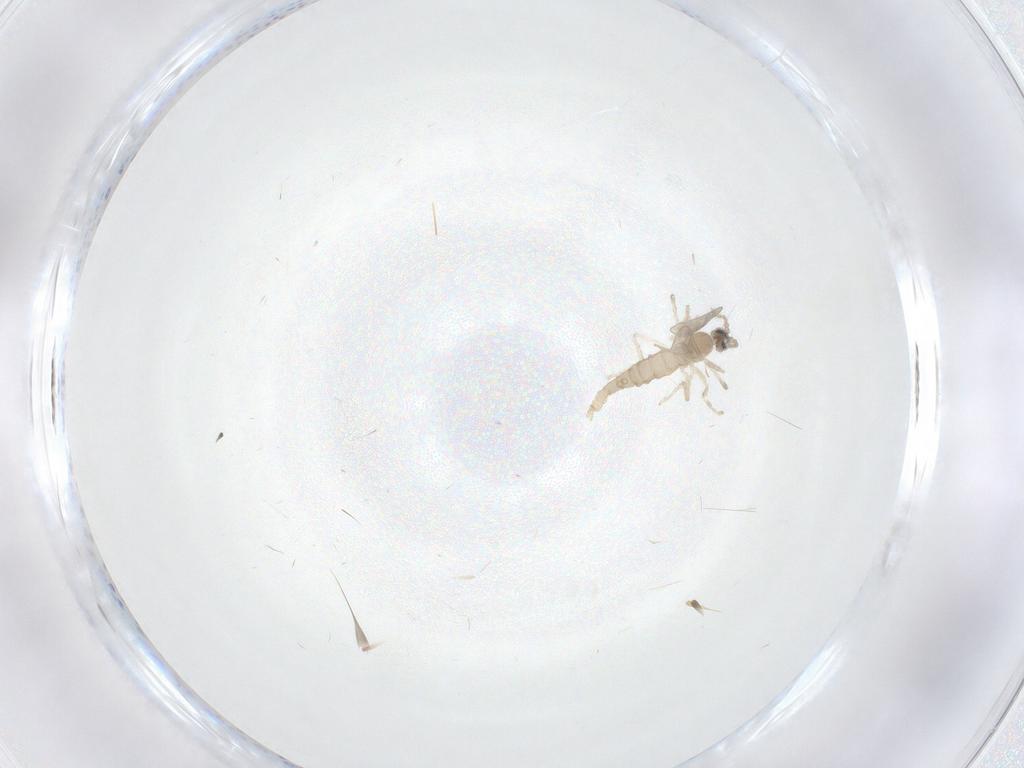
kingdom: Animalia
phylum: Arthropoda
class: Insecta
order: Diptera
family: Cecidomyiidae
